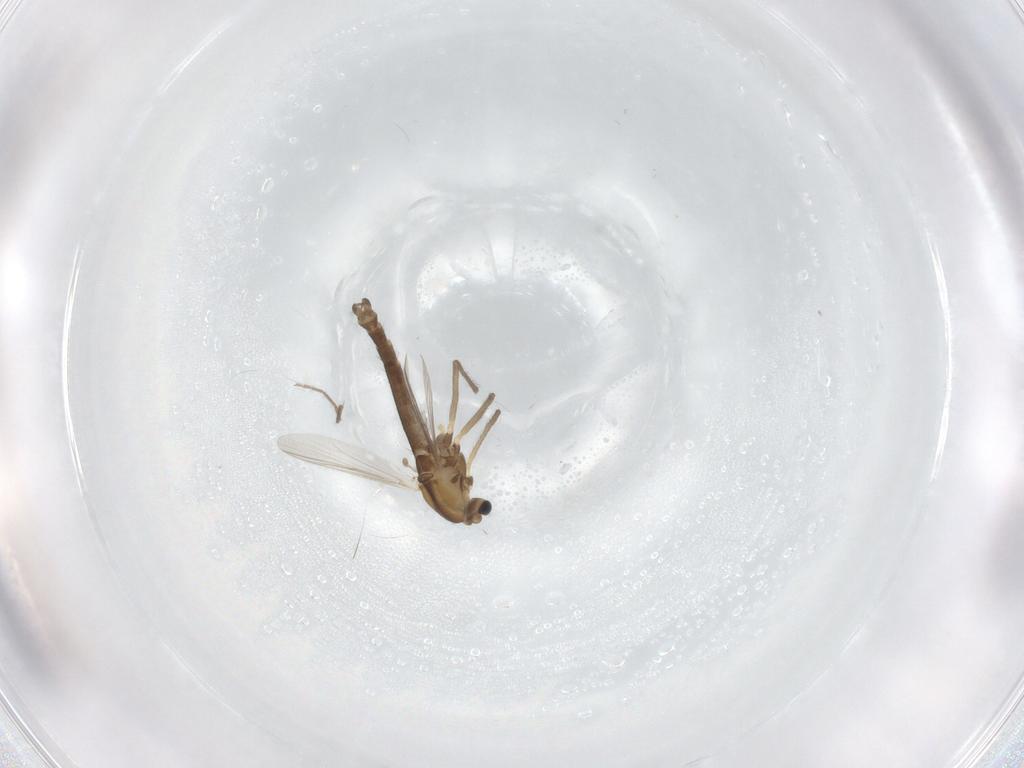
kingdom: Animalia
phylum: Arthropoda
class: Insecta
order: Diptera
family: Chironomidae
